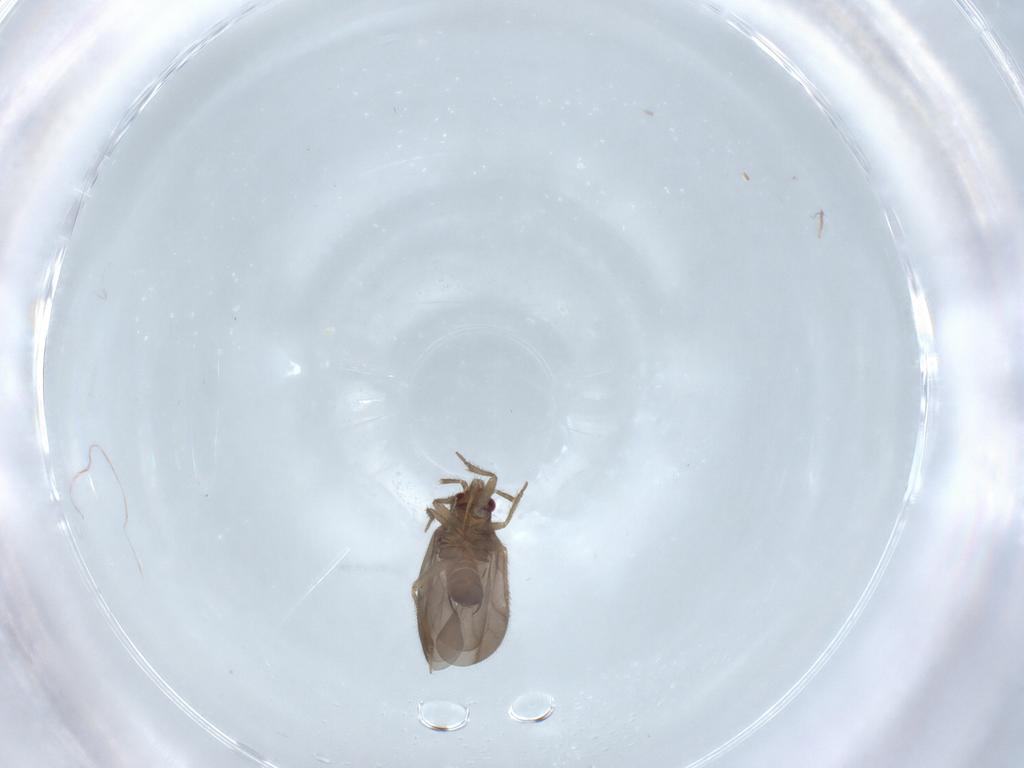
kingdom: Animalia
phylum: Arthropoda
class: Insecta
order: Hemiptera
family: Ceratocombidae
